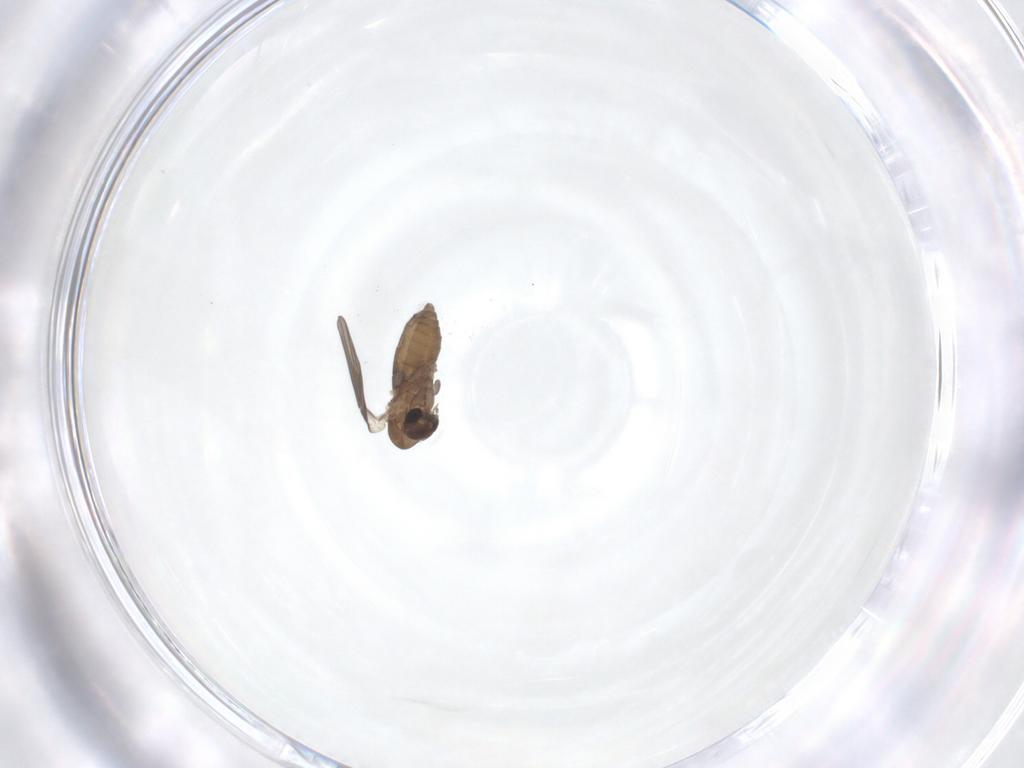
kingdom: Animalia
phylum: Arthropoda
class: Insecta
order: Diptera
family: Psychodidae
